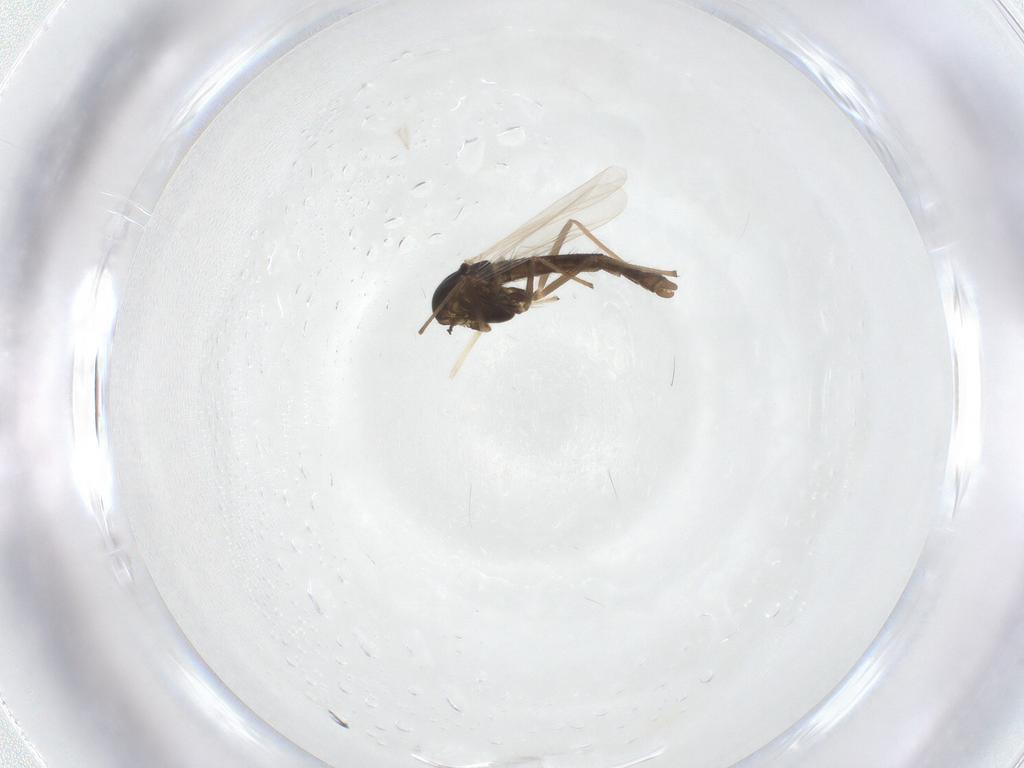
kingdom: Animalia
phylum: Arthropoda
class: Insecta
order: Diptera
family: Chironomidae
